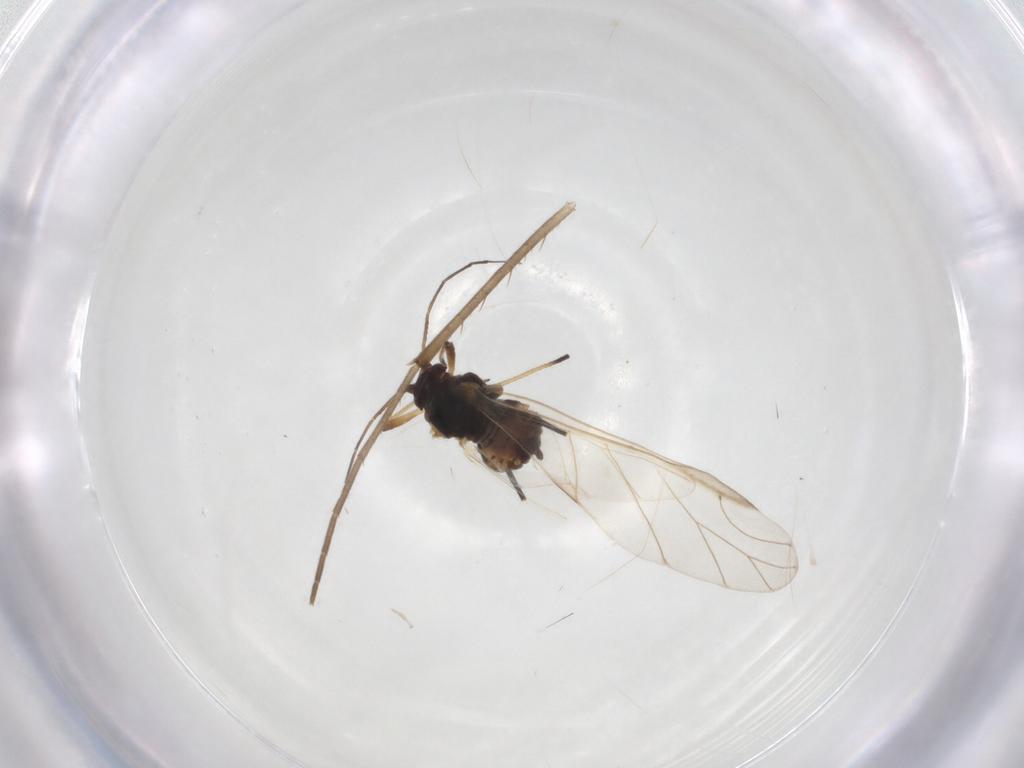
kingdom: Animalia
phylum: Arthropoda
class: Insecta
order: Hemiptera
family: Aphididae
